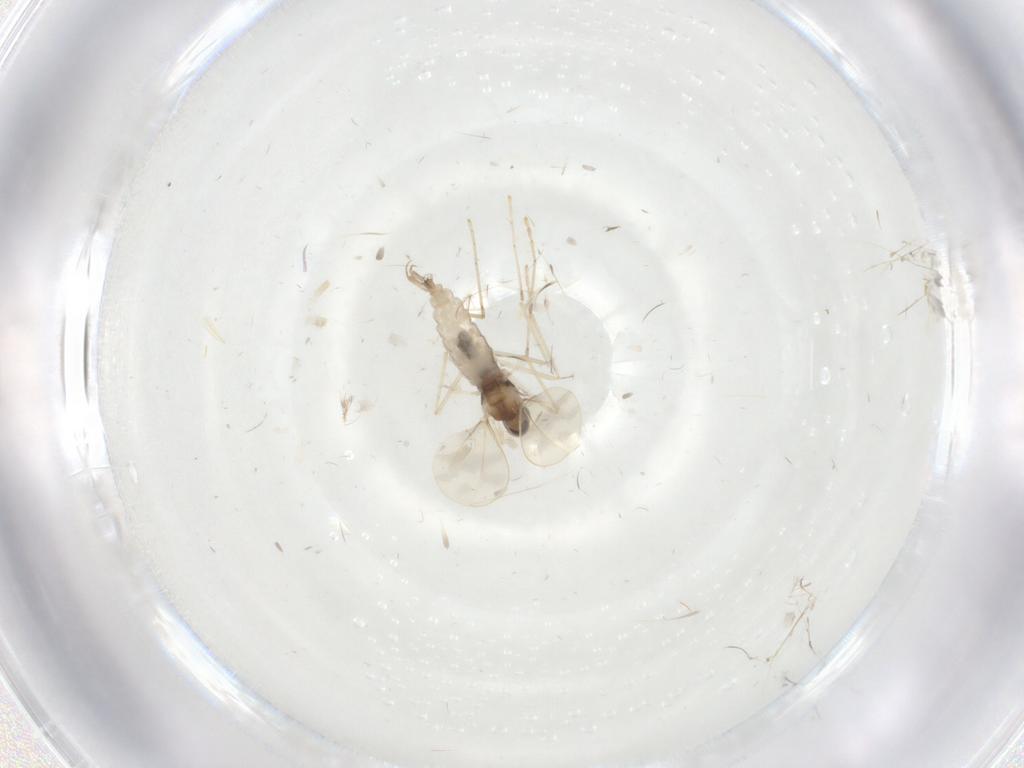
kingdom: Animalia
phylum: Arthropoda
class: Insecta
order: Diptera
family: Cecidomyiidae
